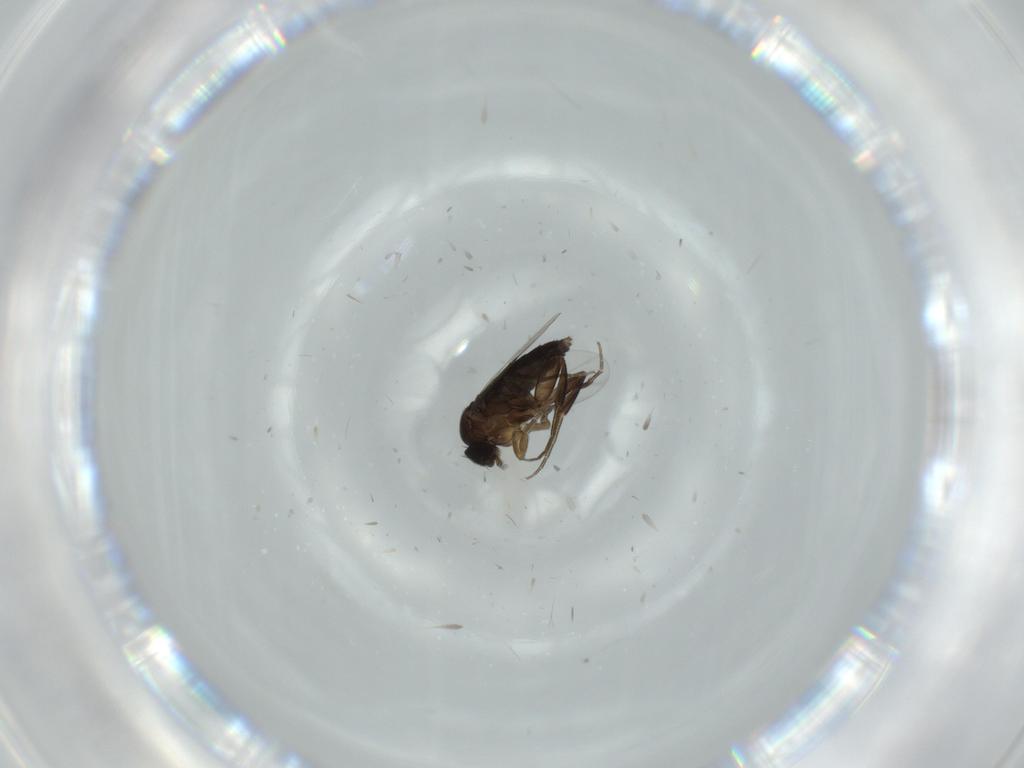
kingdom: Animalia
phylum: Arthropoda
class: Insecta
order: Diptera
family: Phoridae
